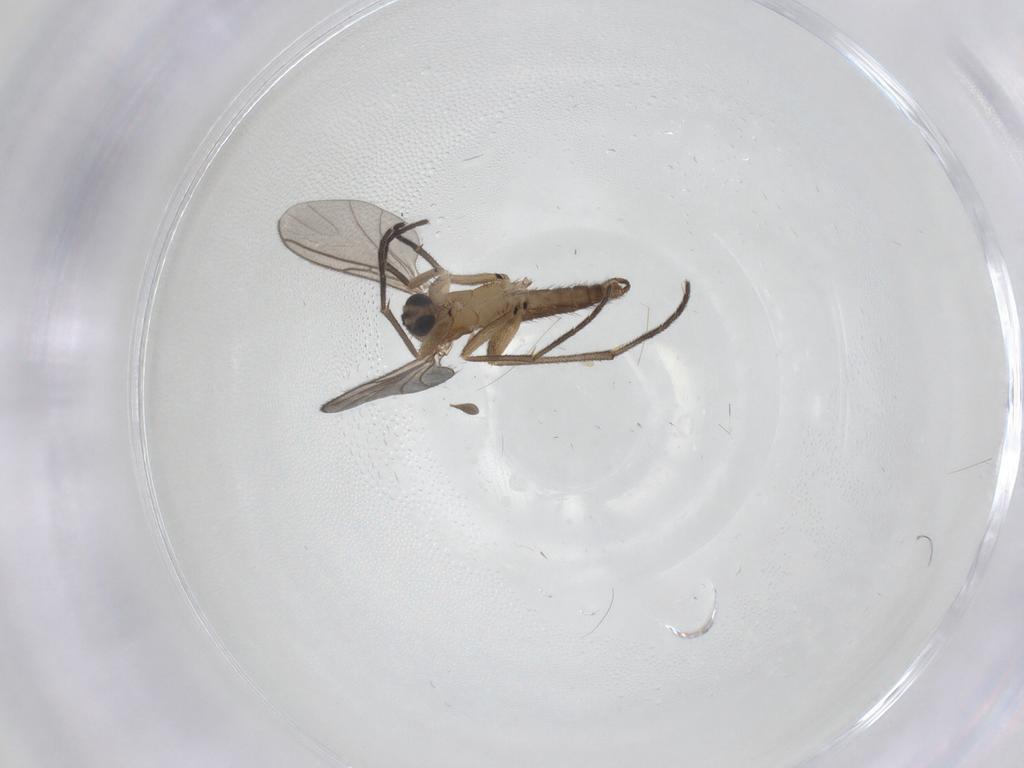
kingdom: Animalia
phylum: Arthropoda
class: Insecta
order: Diptera
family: Sciaridae
